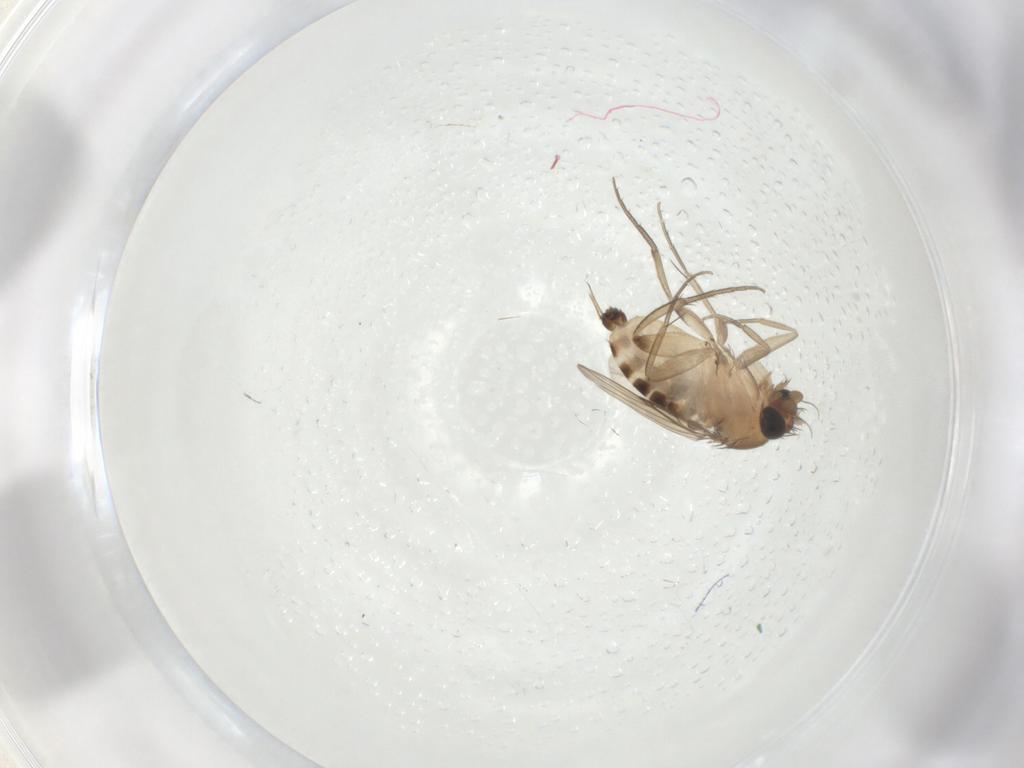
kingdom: Animalia
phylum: Arthropoda
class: Insecta
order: Diptera
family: Phoridae
